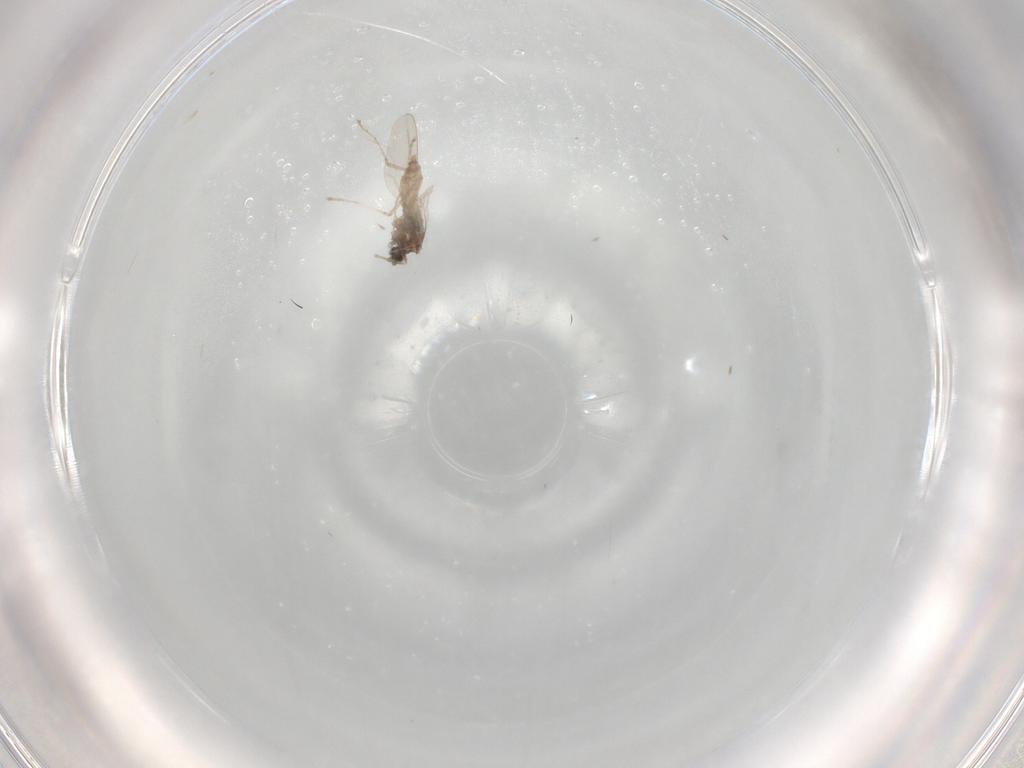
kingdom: Animalia
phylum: Arthropoda
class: Insecta
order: Diptera
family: Cecidomyiidae
